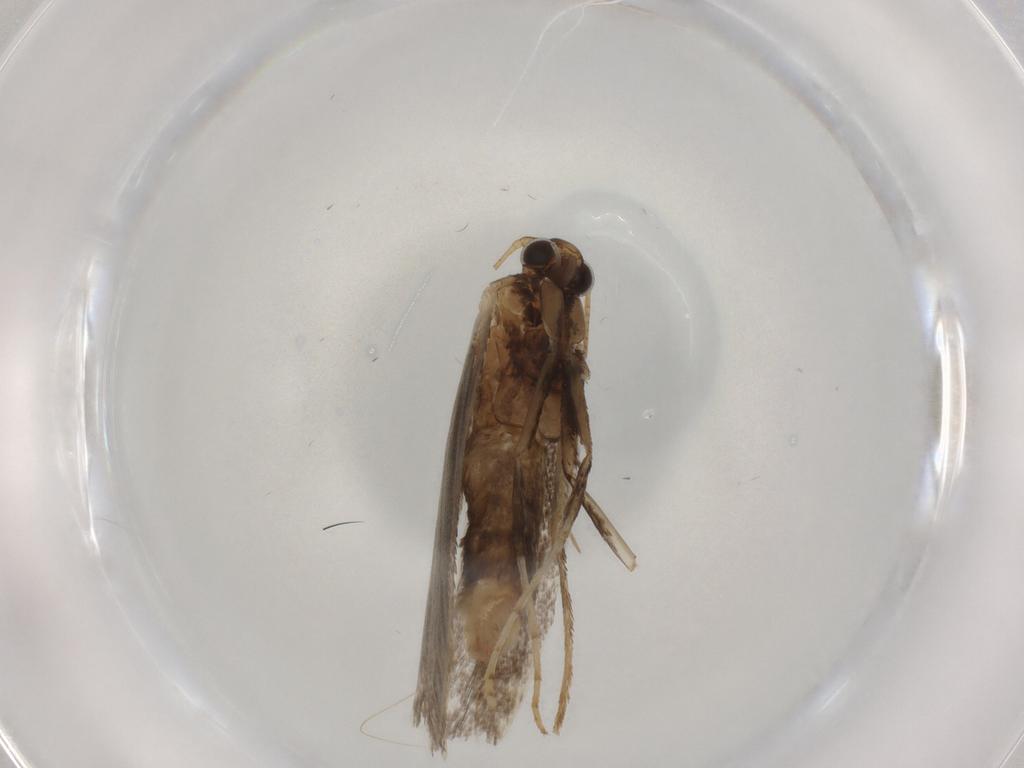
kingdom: Animalia
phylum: Arthropoda
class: Insecta
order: Lepidoptera
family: Gracillariidae
